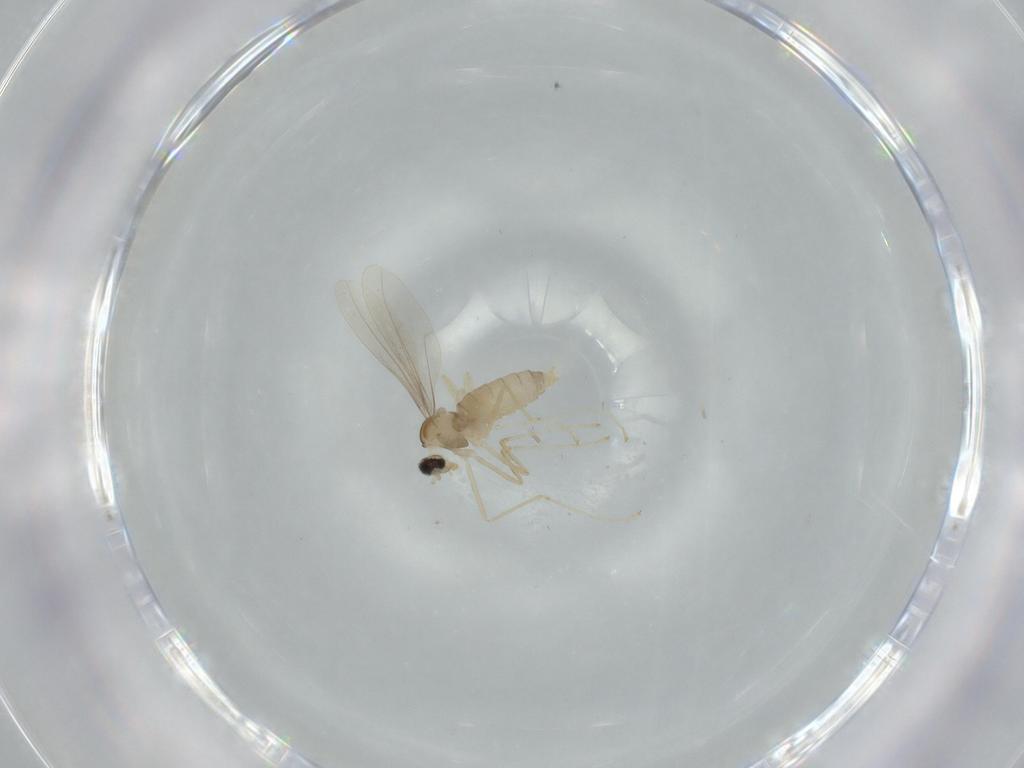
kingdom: Animalia
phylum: Arthropoda
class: Insecta
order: Diptera
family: Cecidomyiidae
